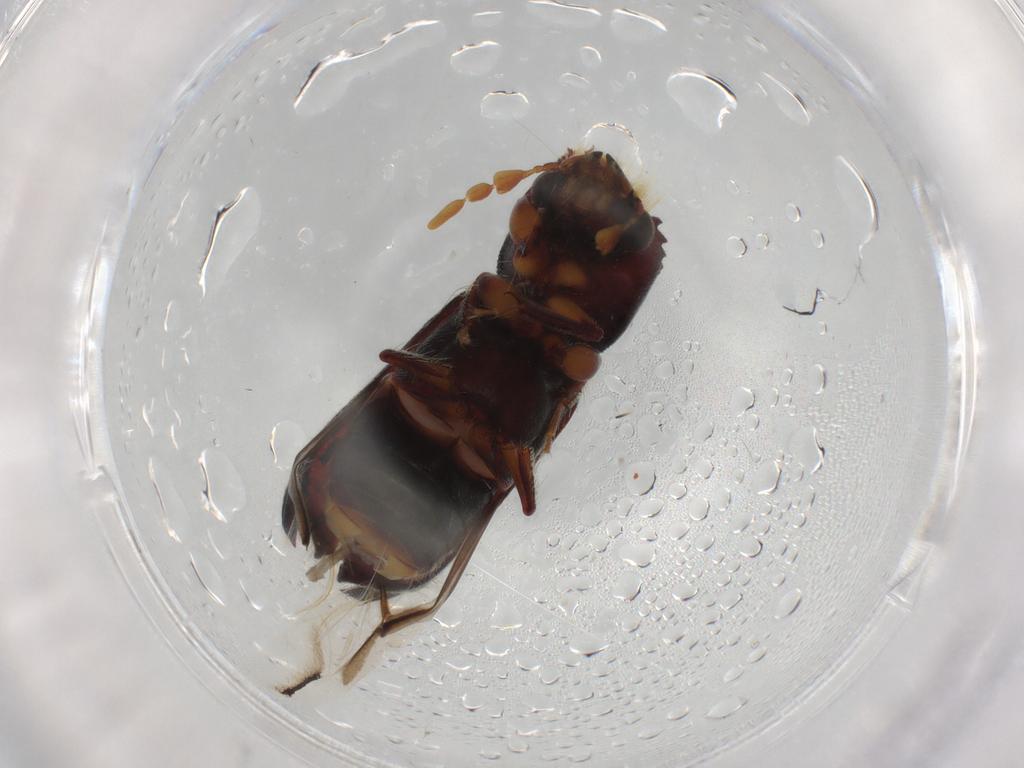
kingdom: Animalia
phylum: Arthropoda
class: Insecta
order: Coleoptera
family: Bostrichidae
